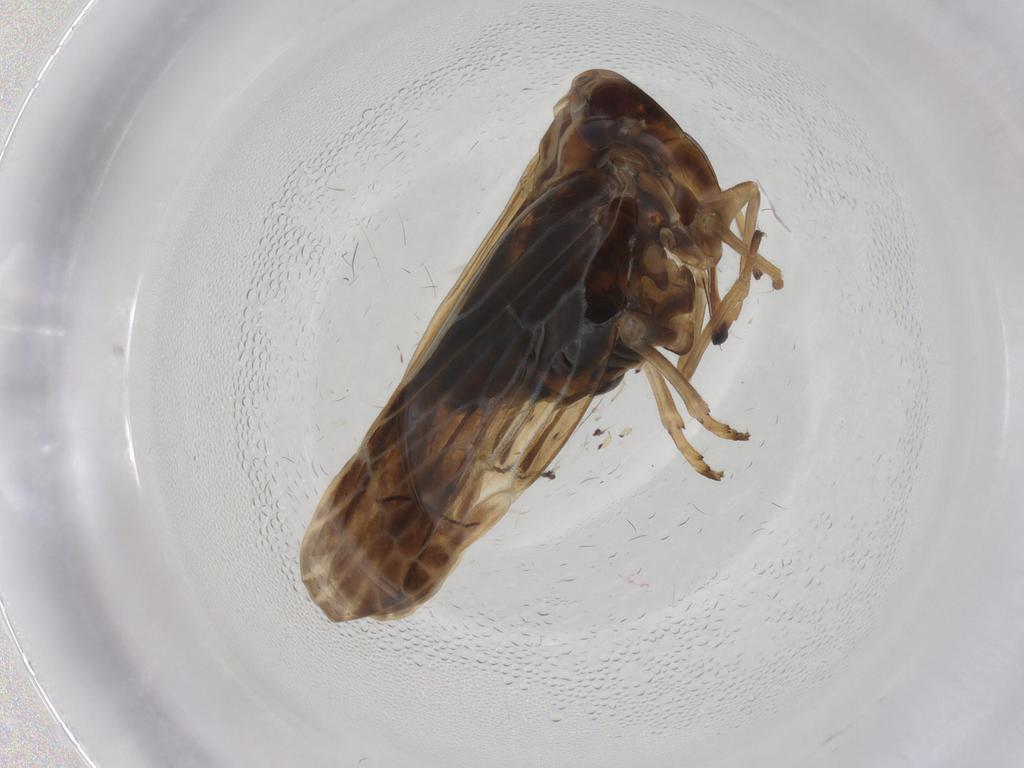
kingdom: Animalia
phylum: Arthropoda
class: Insecta
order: Hemiptera
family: Derbidae
